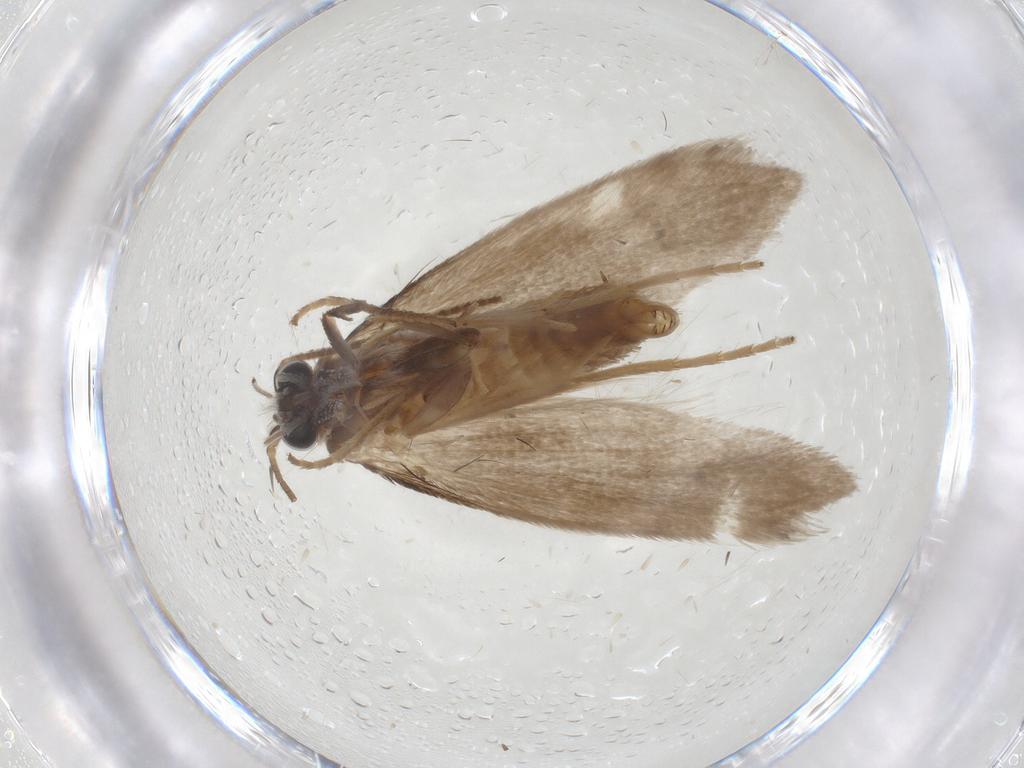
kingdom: Animalia
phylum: Arthropoda
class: Insecta
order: Lepidoptera
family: Incurvariidae
